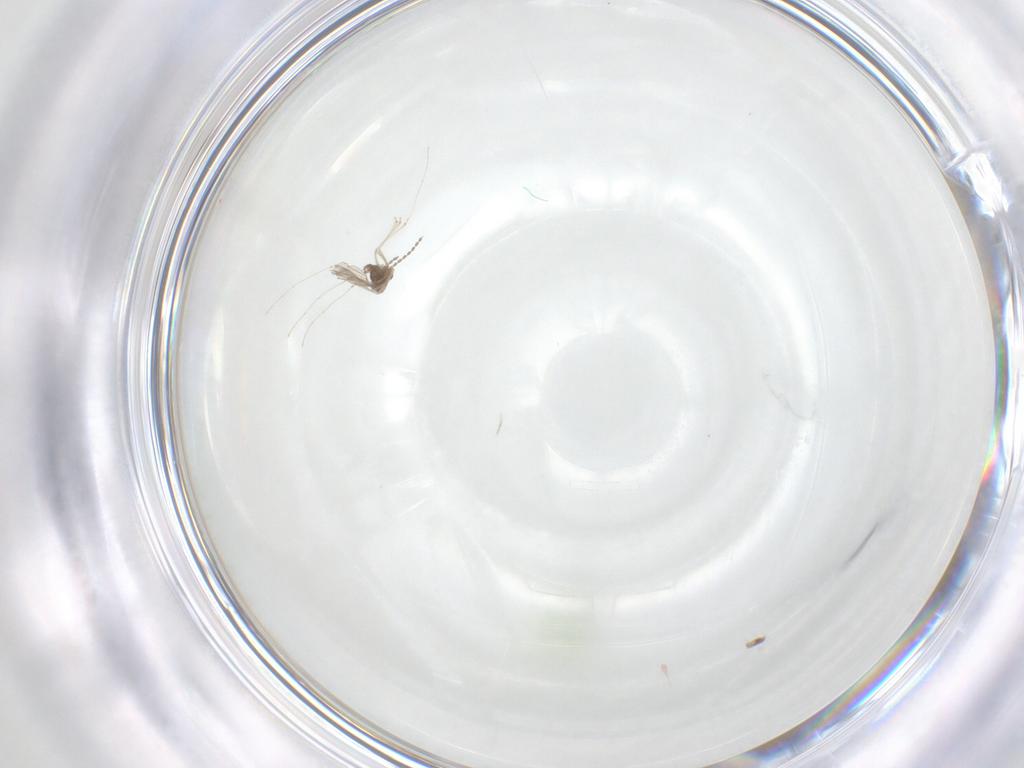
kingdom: Animalia
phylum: Arthropoda
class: Insecta
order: Diptera
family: Cecidomyiidae
